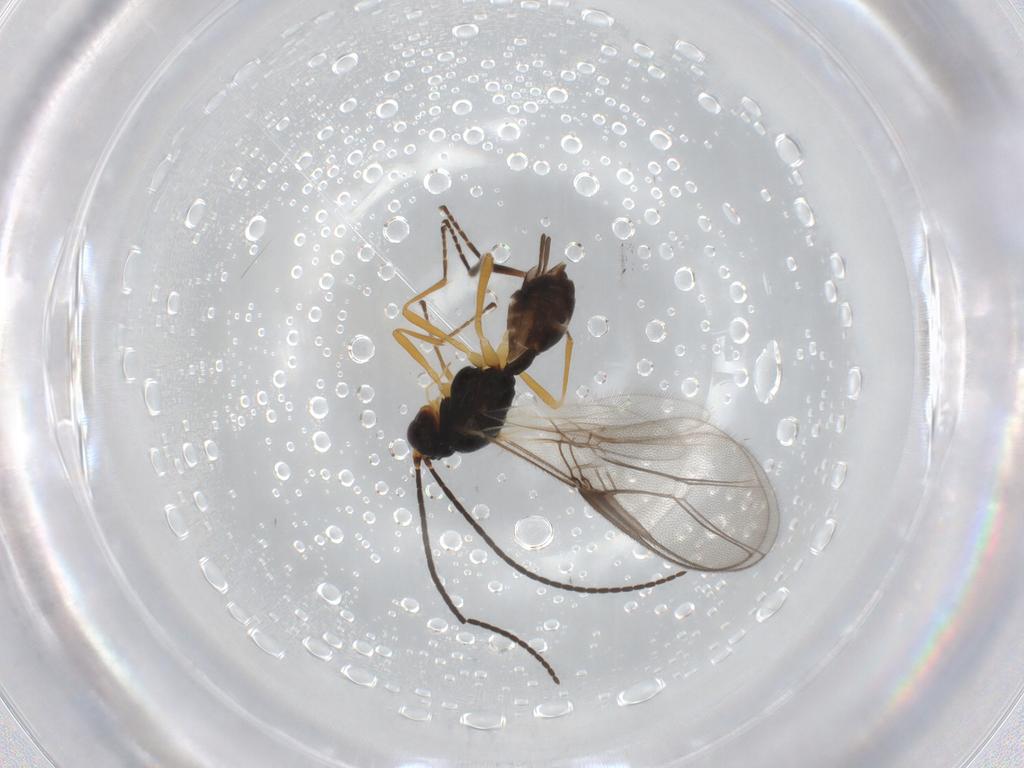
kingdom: Animalia
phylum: Arthropoda
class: Insecta
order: Hymenoptera
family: Braconidae
